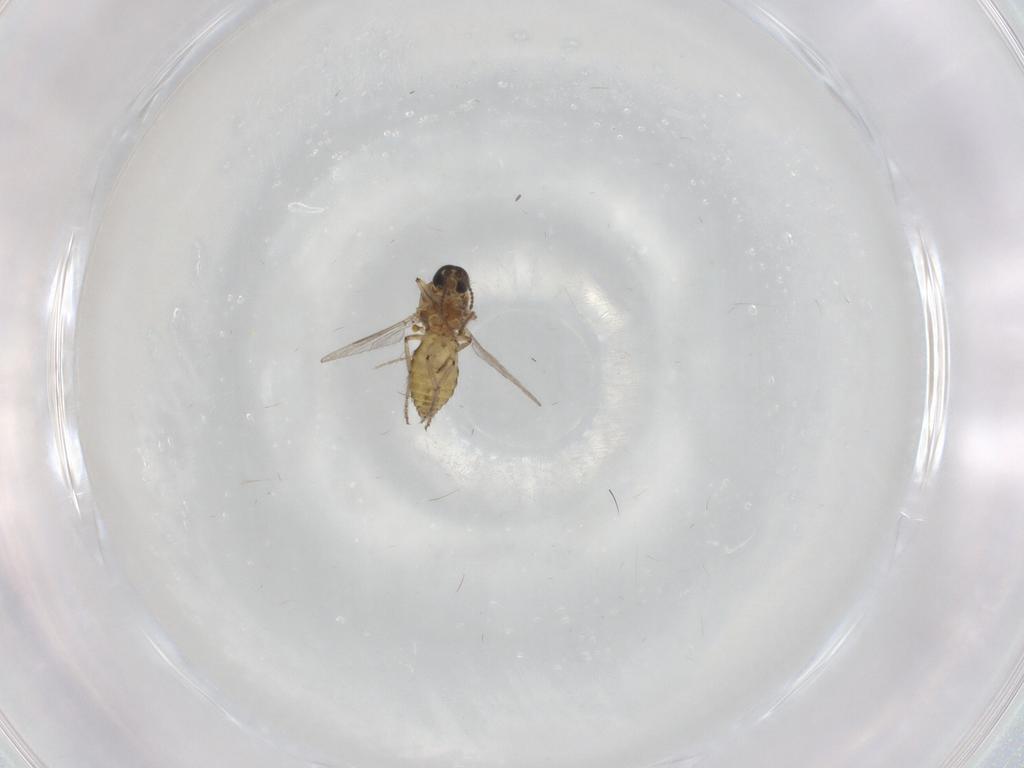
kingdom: Animalia
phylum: Arthropoda
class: Insecta
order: Diptera
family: Ceratopogonidae
